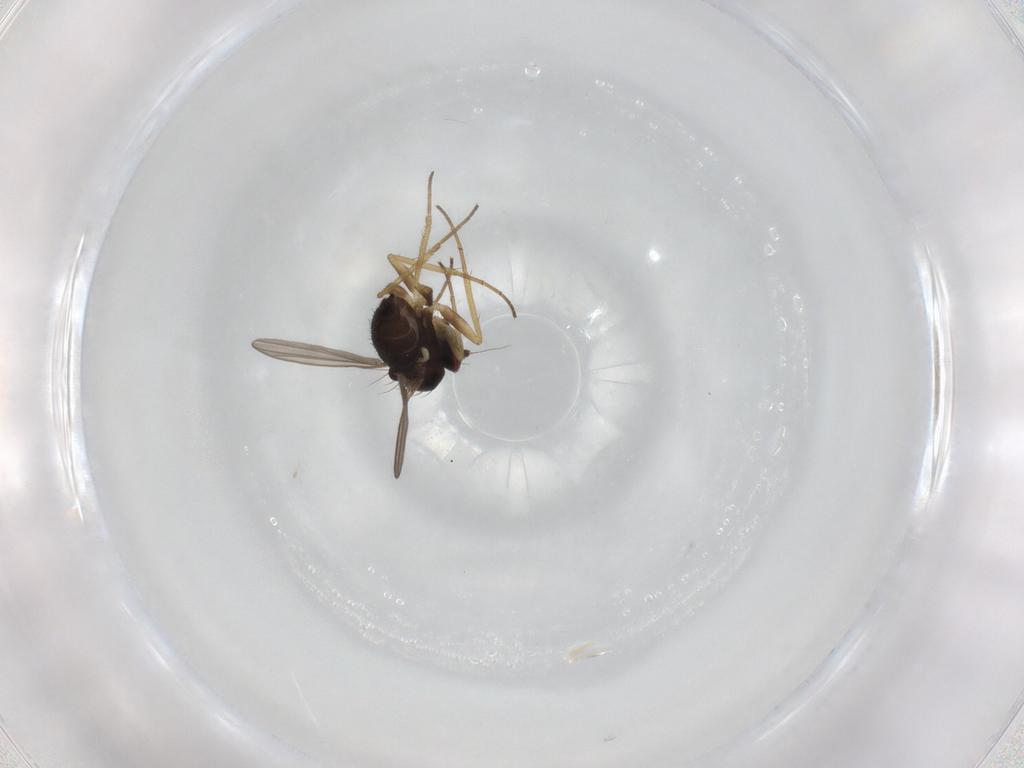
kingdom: Animalia
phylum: Arthropoda
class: Insecta
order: Diptera
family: Dolichopodidae
